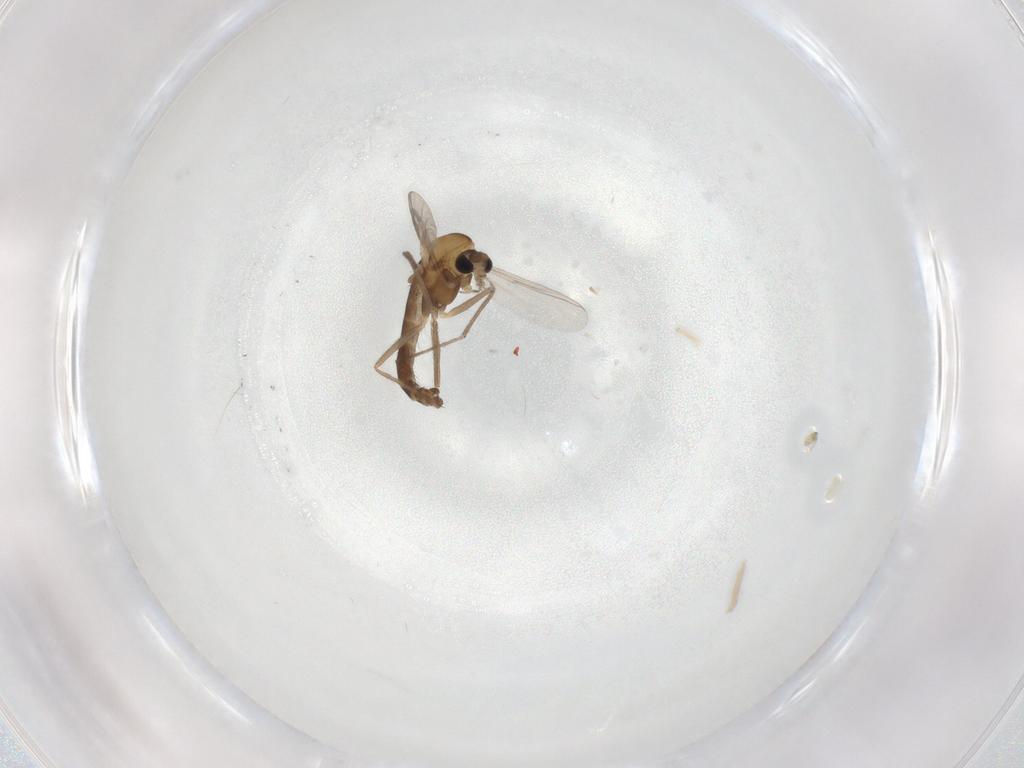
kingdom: Animalia
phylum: Arthropoda
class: Insecta
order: Diptera
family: Chironomidae
